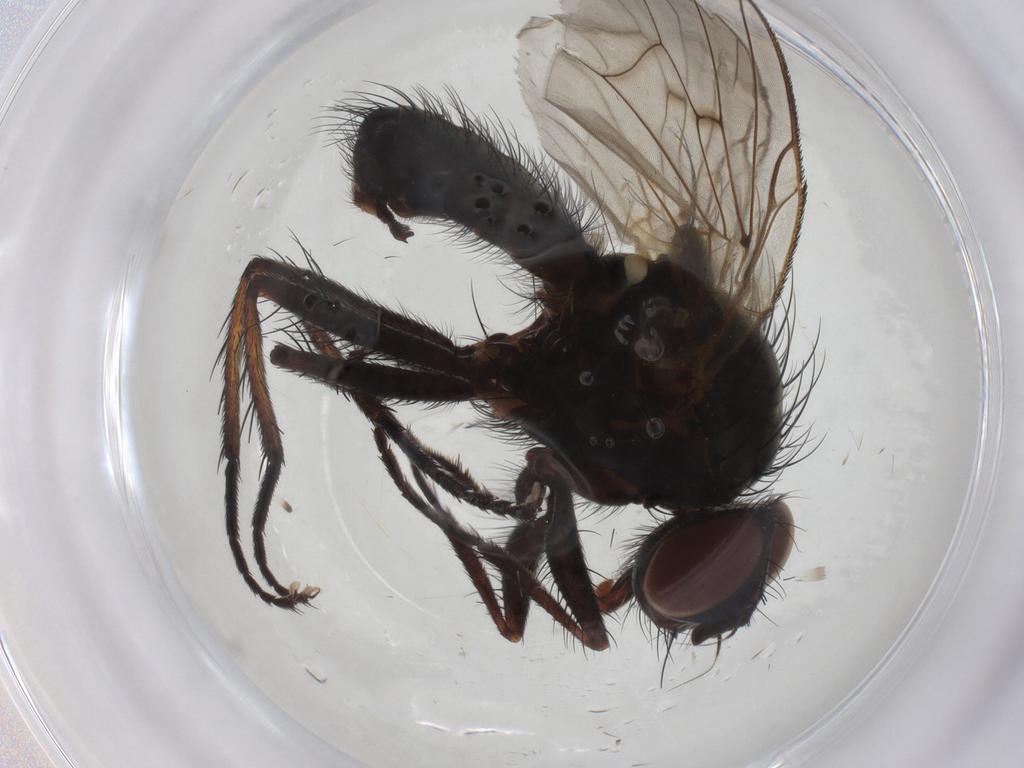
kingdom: Animalia
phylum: Arthropoda
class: Insecta
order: Diptera
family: Anthomyiidae
